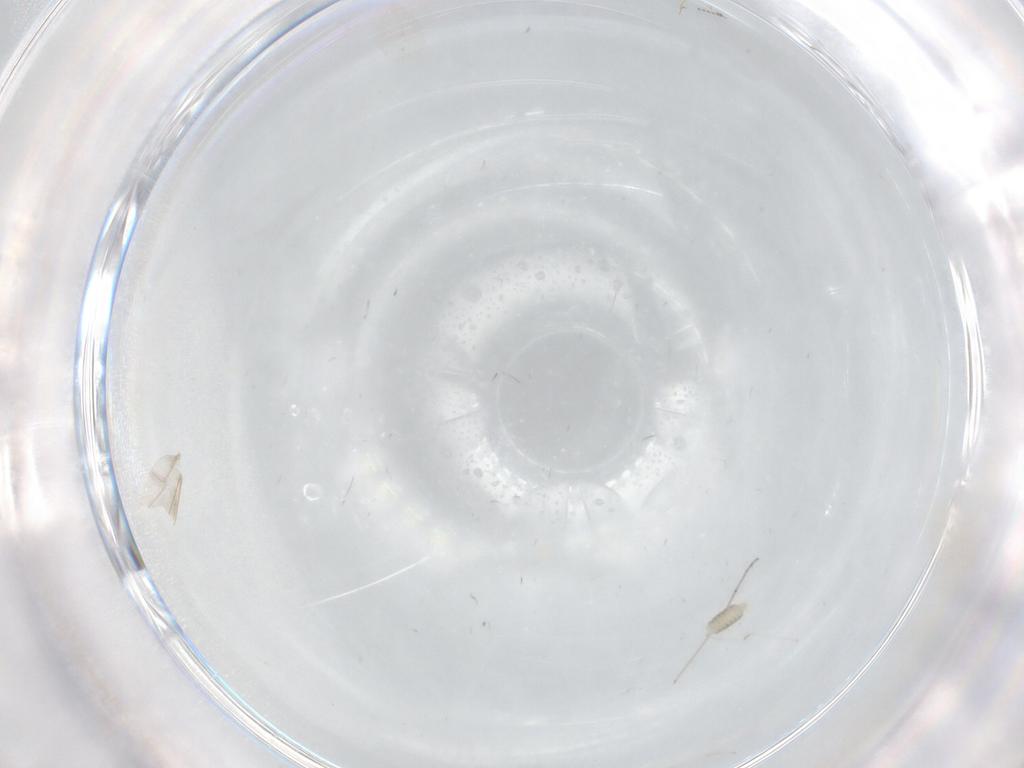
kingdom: Animalia
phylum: Arthropoda
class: Insecta
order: Diptera
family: Cecidomyiidae
